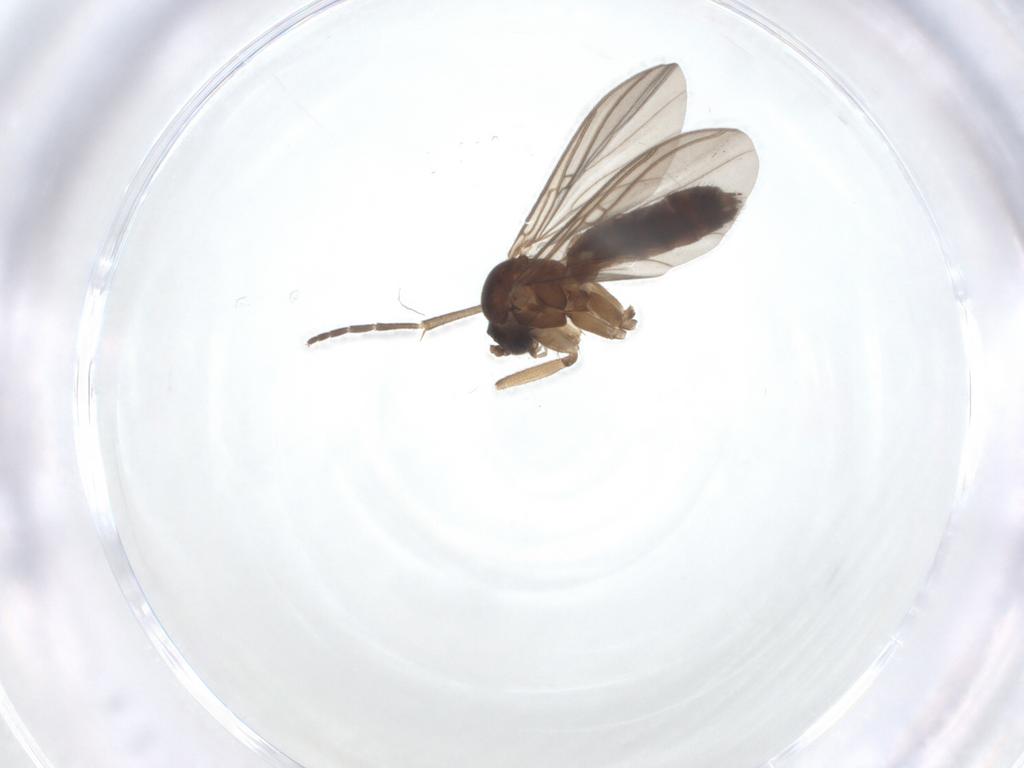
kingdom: Animalia
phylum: Arthropoda
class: Insecta
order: Diptera
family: Mycetophilidae
